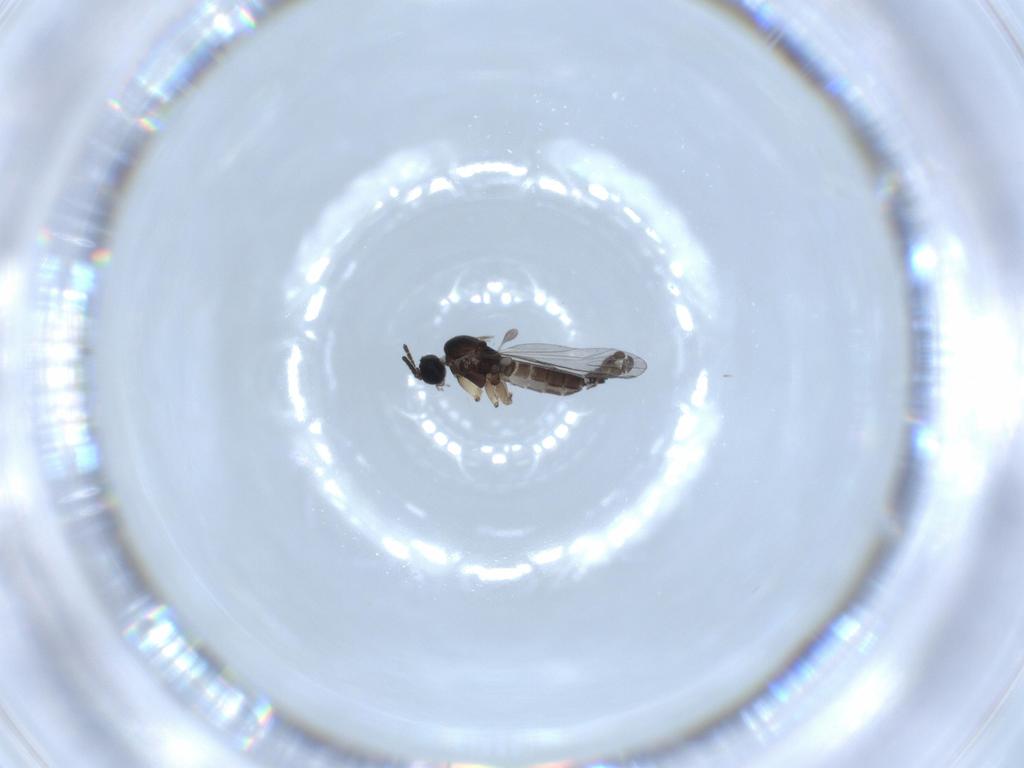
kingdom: Animalia
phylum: Arthropoda
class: Insecta
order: Diptera
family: Sciaridae
